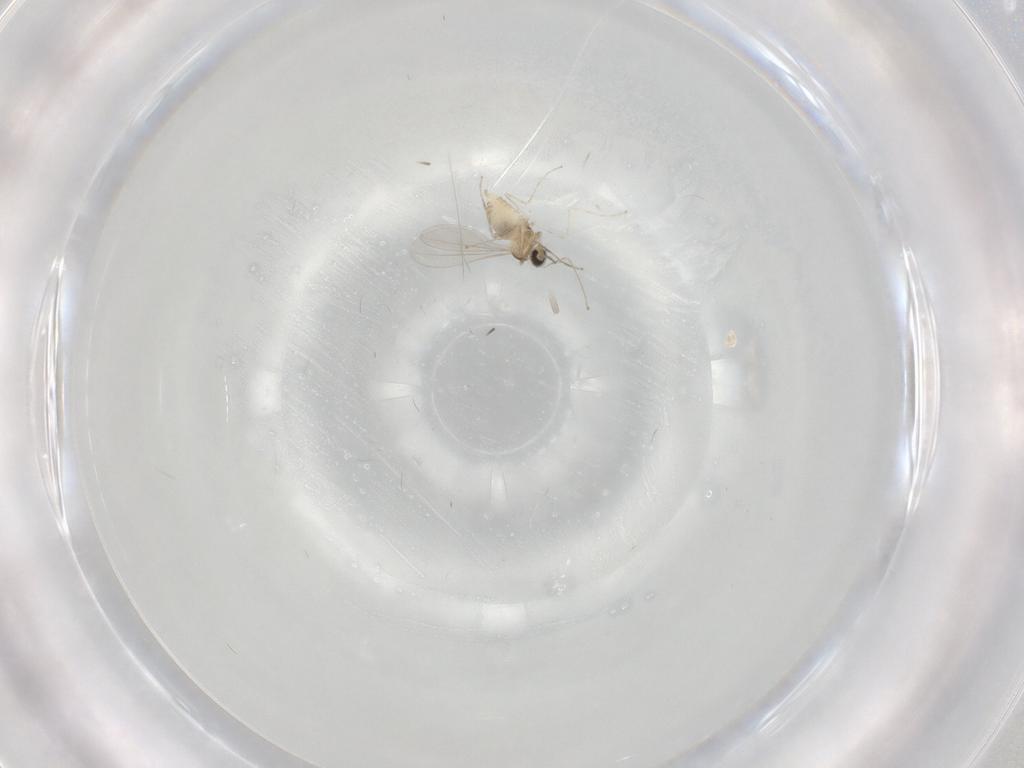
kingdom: Animalia
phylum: Arthropoda
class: Insecta
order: Diptera
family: Cecidomyiidae
